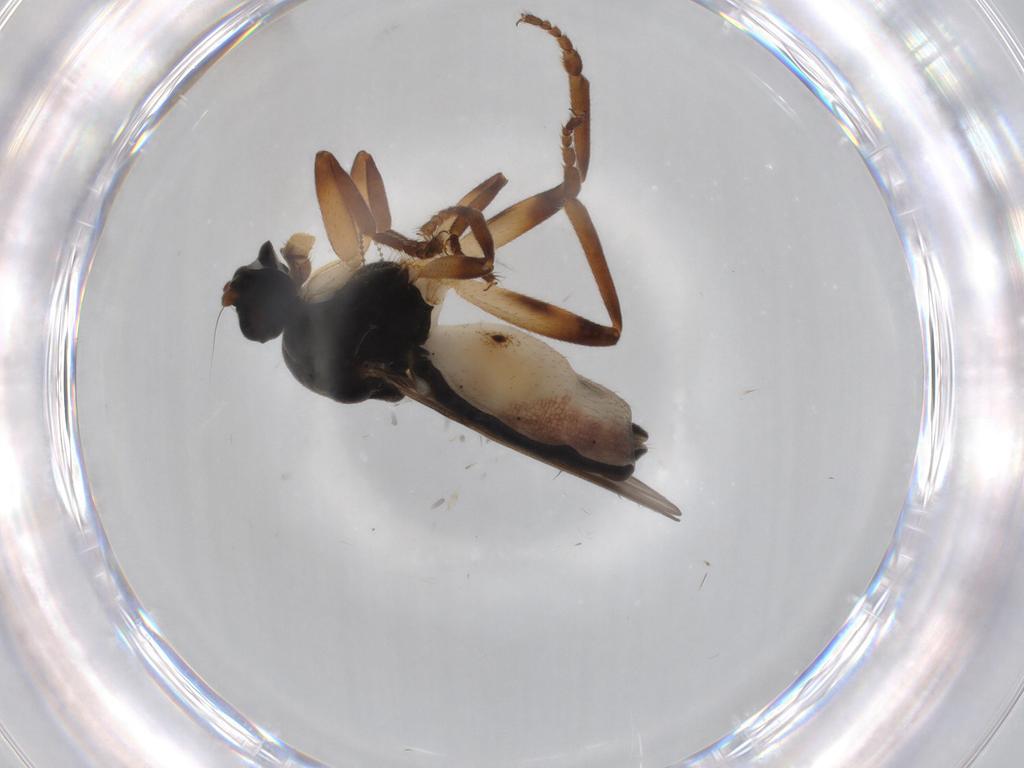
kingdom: Animalia
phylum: Arthropoda
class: Insecta
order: Diptera
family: Sphaeroceridae
